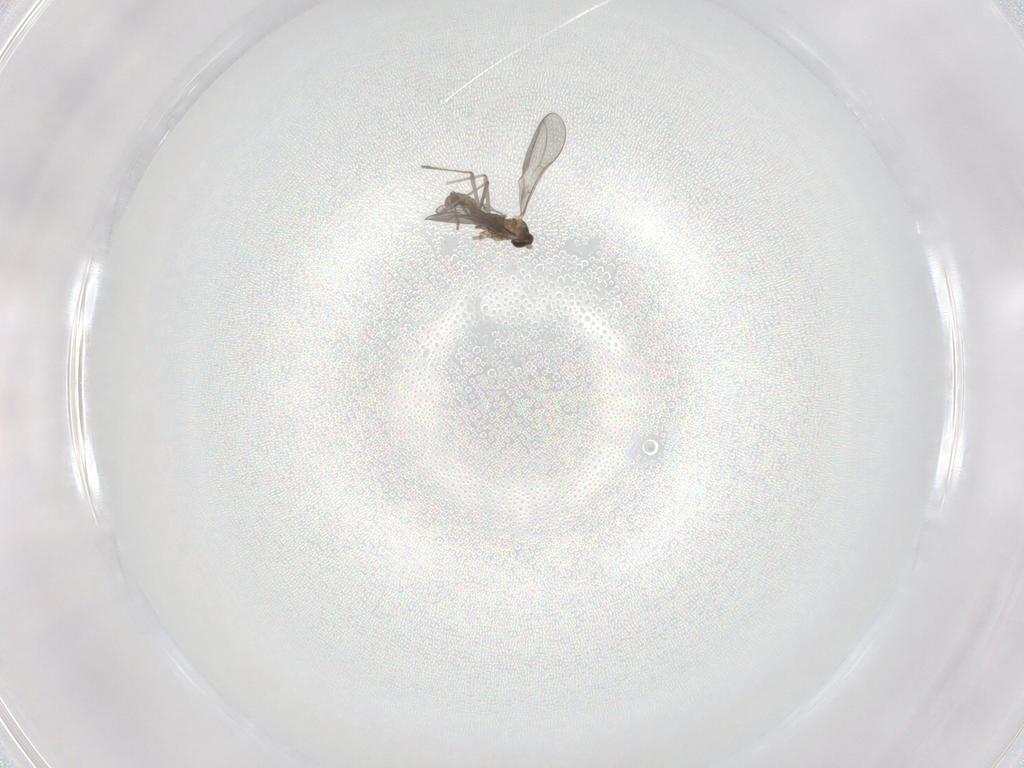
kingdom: Animalia
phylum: Arthropoda
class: Insecta
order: Diptera
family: Cecidomyiidae
